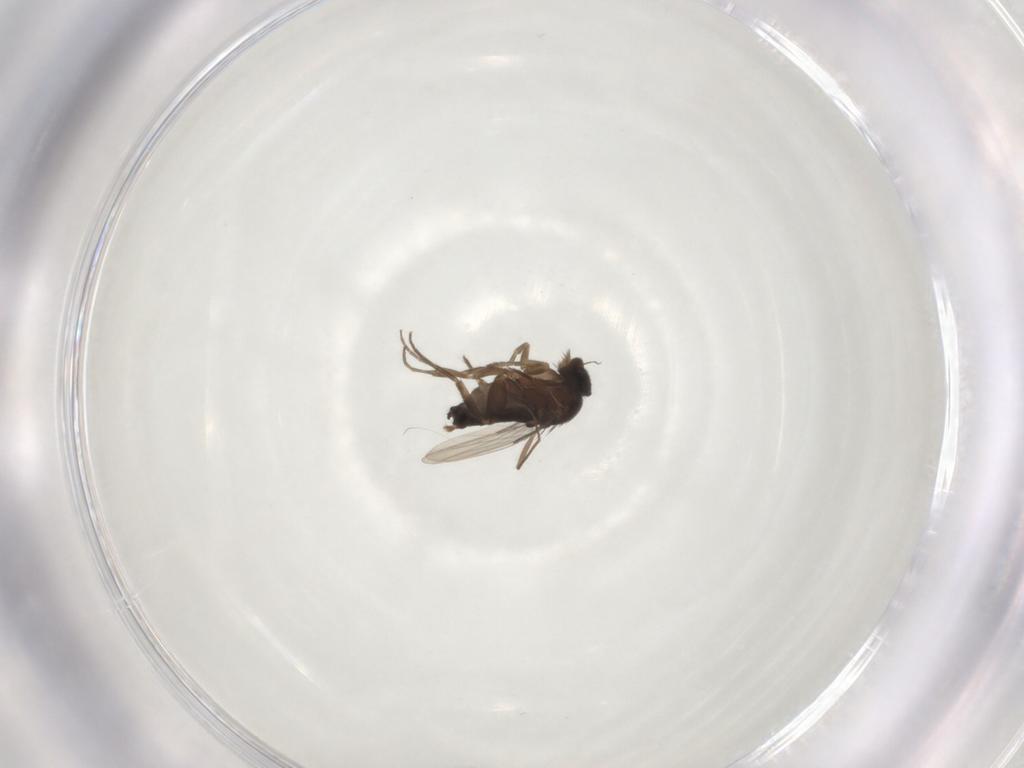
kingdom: Animalia
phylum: Arthropoda
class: Insecta
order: Diptera
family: Phoridae
